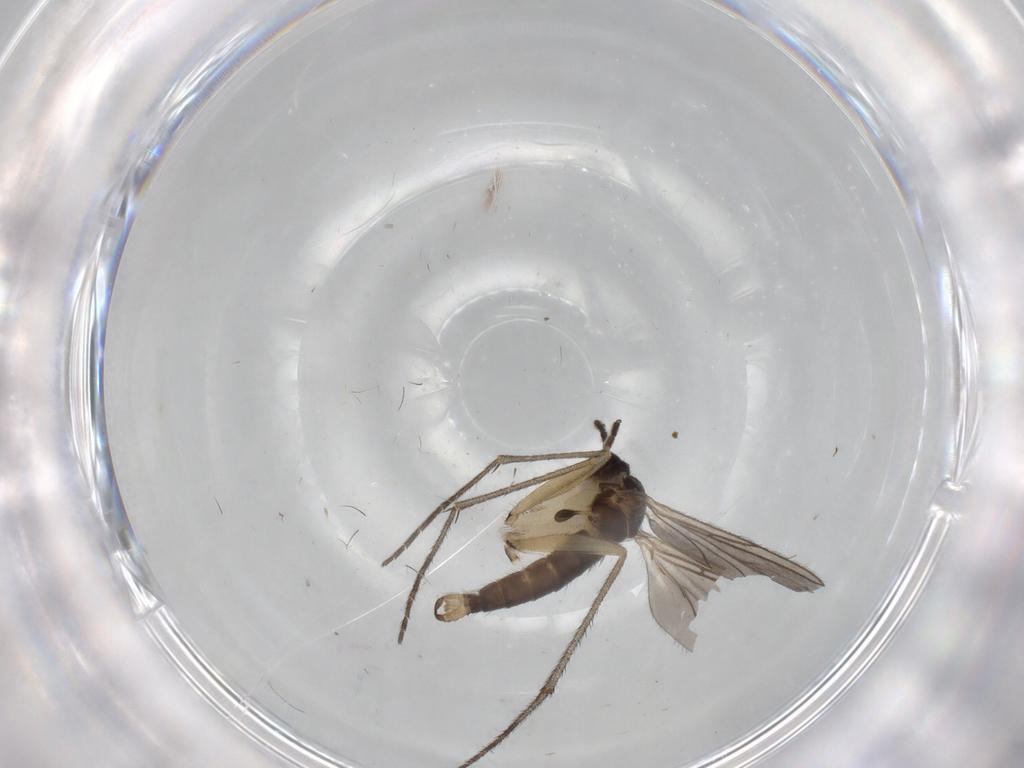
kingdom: Animalia
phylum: Arthropoda
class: Insecta
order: Diptera
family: Sciaridae
